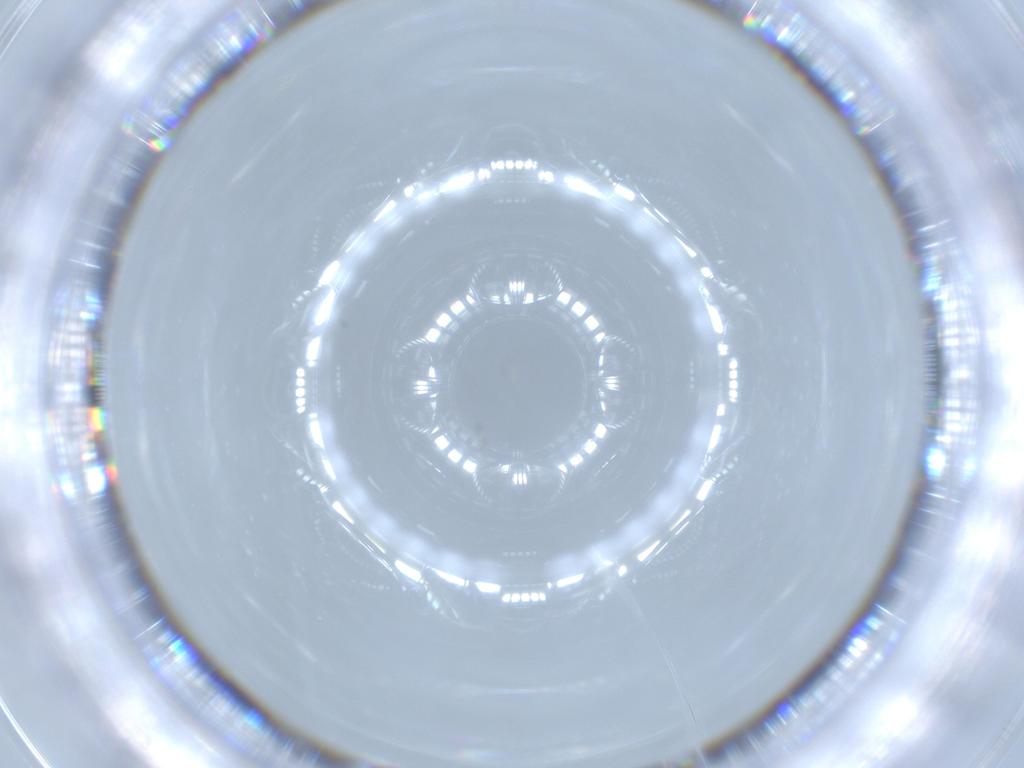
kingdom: Animalia
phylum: Arthropoda
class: Insecta
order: Diptera
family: Cecidomyiidae
